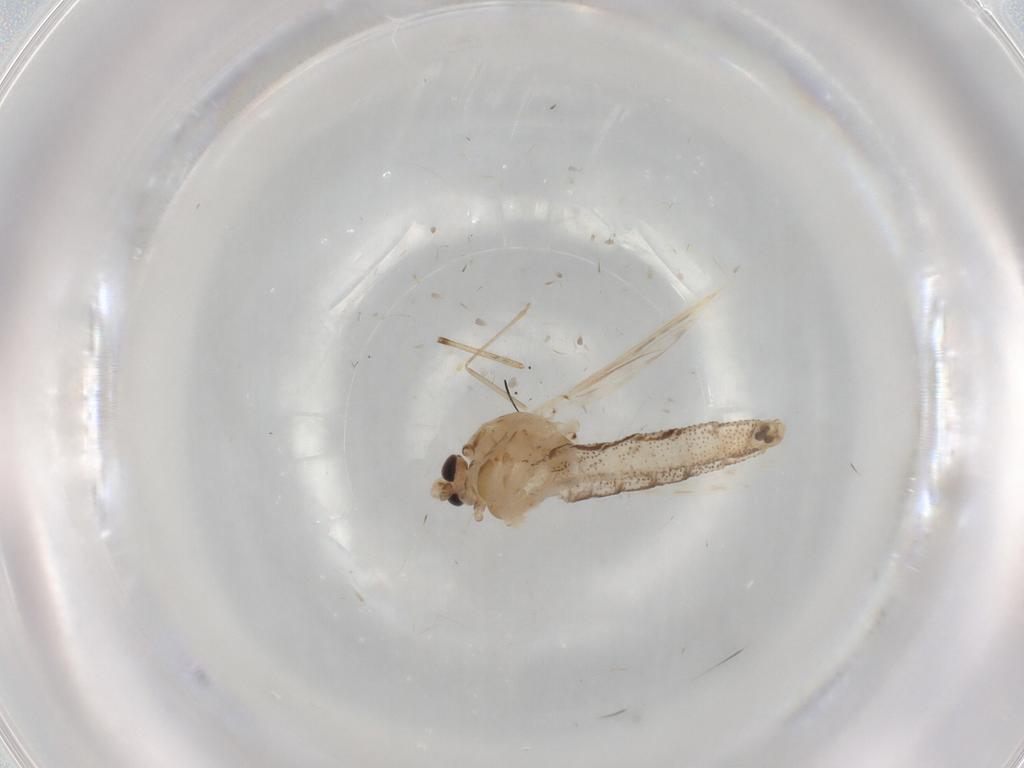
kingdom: Animalia
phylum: Arthropoda
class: Insecta
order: Diptera
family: Chaoboridae
